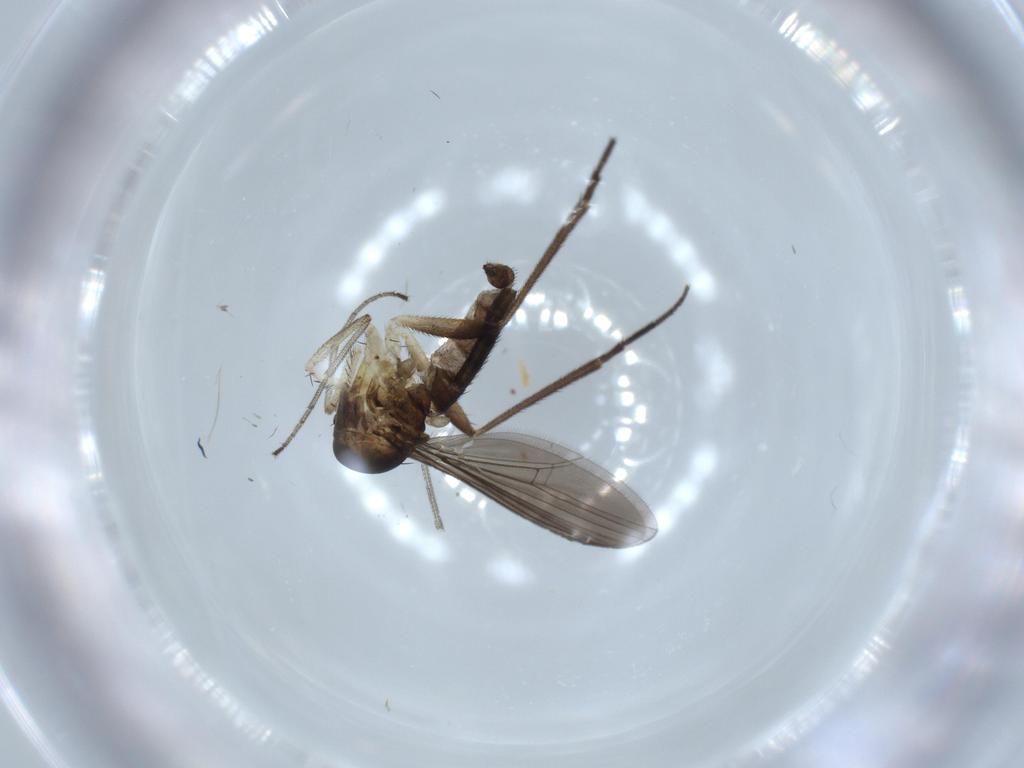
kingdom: Animalia
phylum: Arthropoda
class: Insecta
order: Diptera
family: Dolichopodidae
